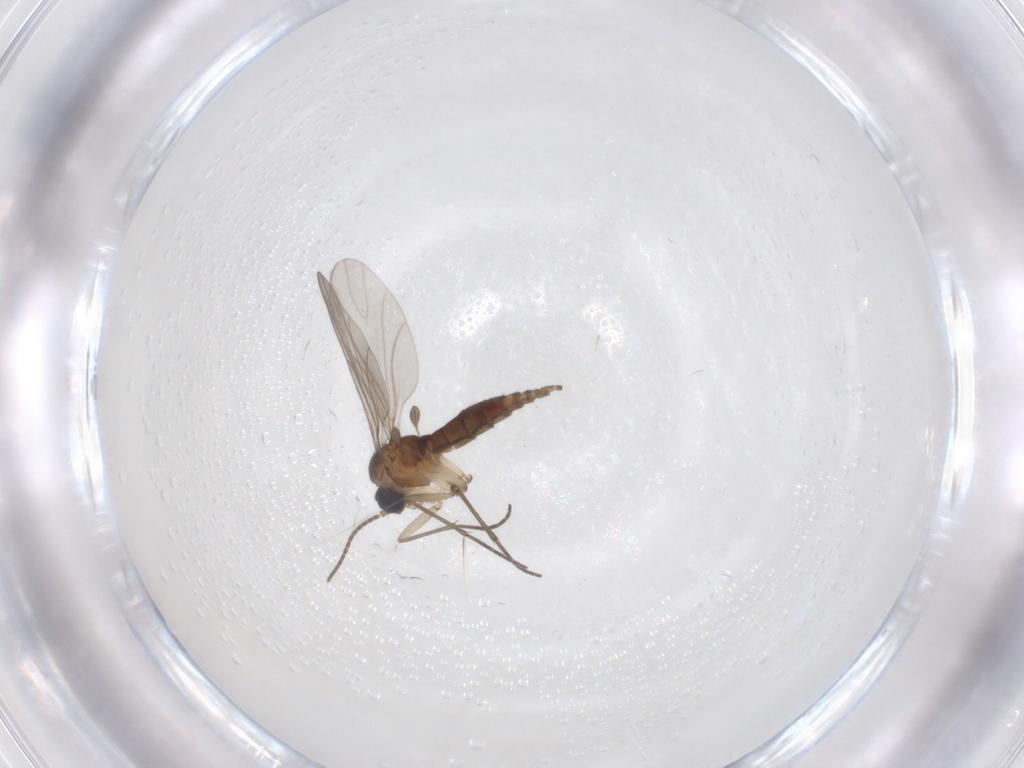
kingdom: Animalia
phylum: Arthropoda
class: Insecta
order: Diptera
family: Sciaridae
